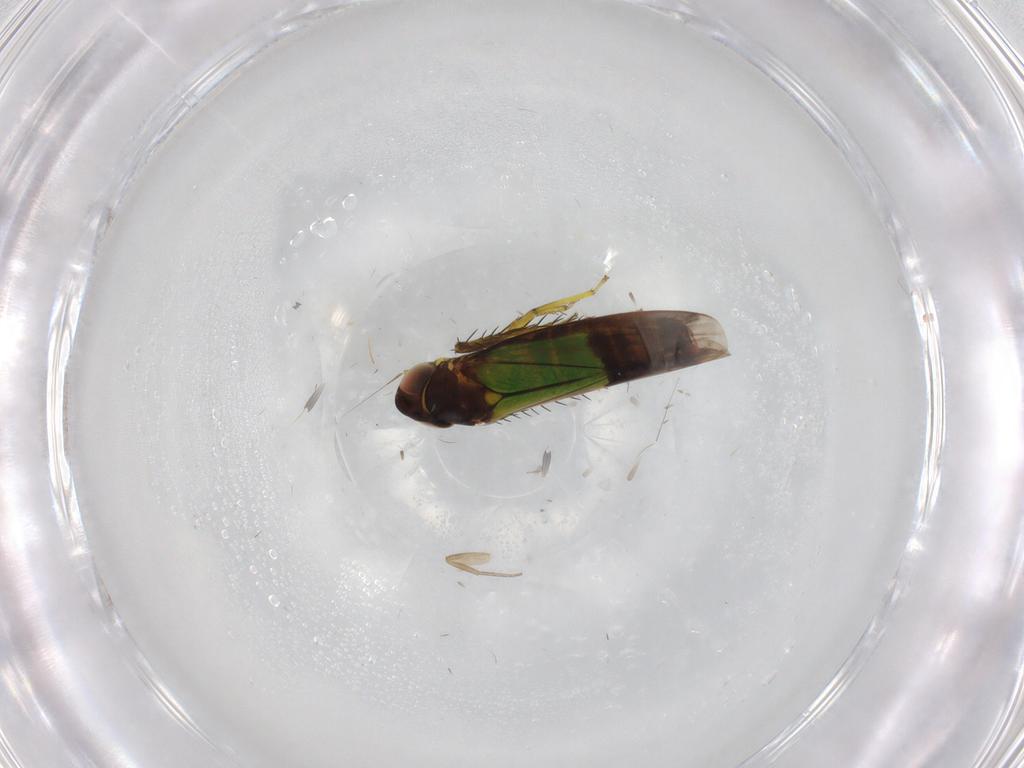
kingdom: Animalia
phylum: Arthropoda
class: Insecta
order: Hemiptera
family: Cicadellidae
